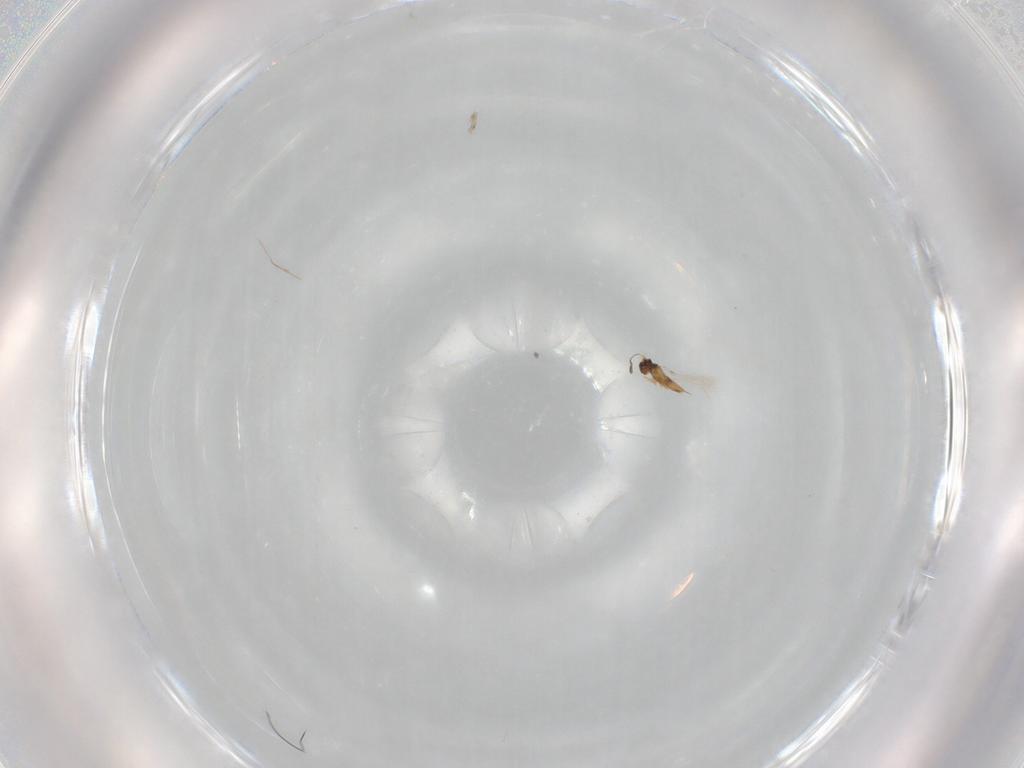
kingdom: Animalia
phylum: Arthropoda
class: Insecta
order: Hymenoptera
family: Mymaridae
